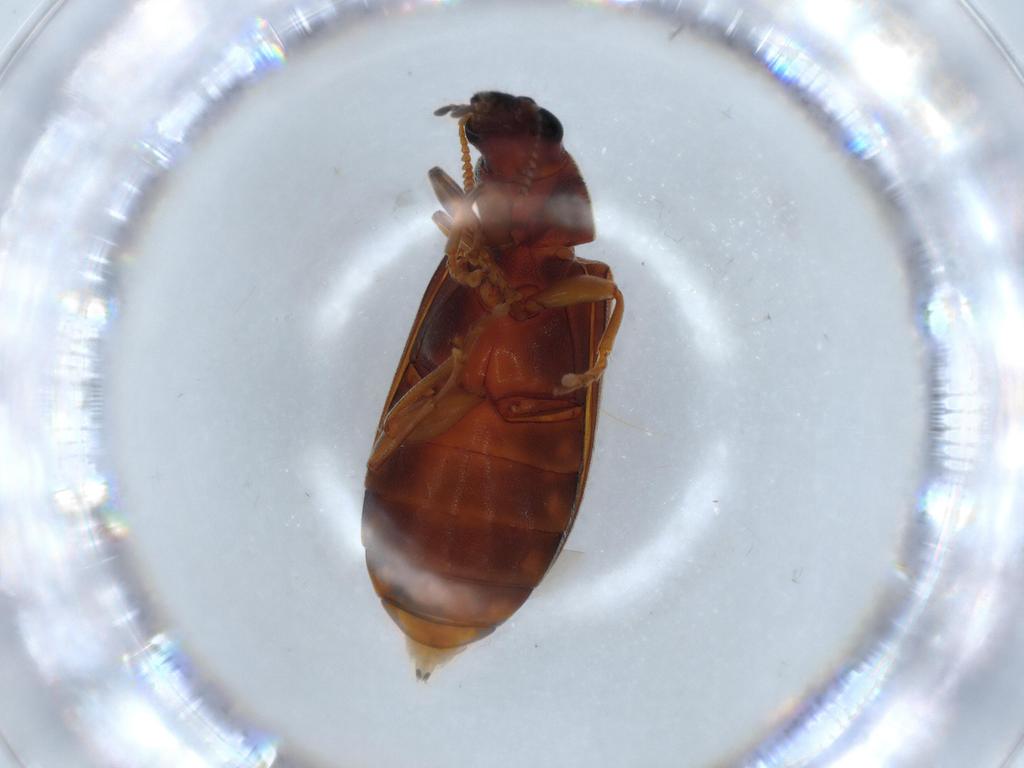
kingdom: Animalia
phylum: Arthropoda
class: Insecta
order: Coleoptera
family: Mycteridae
